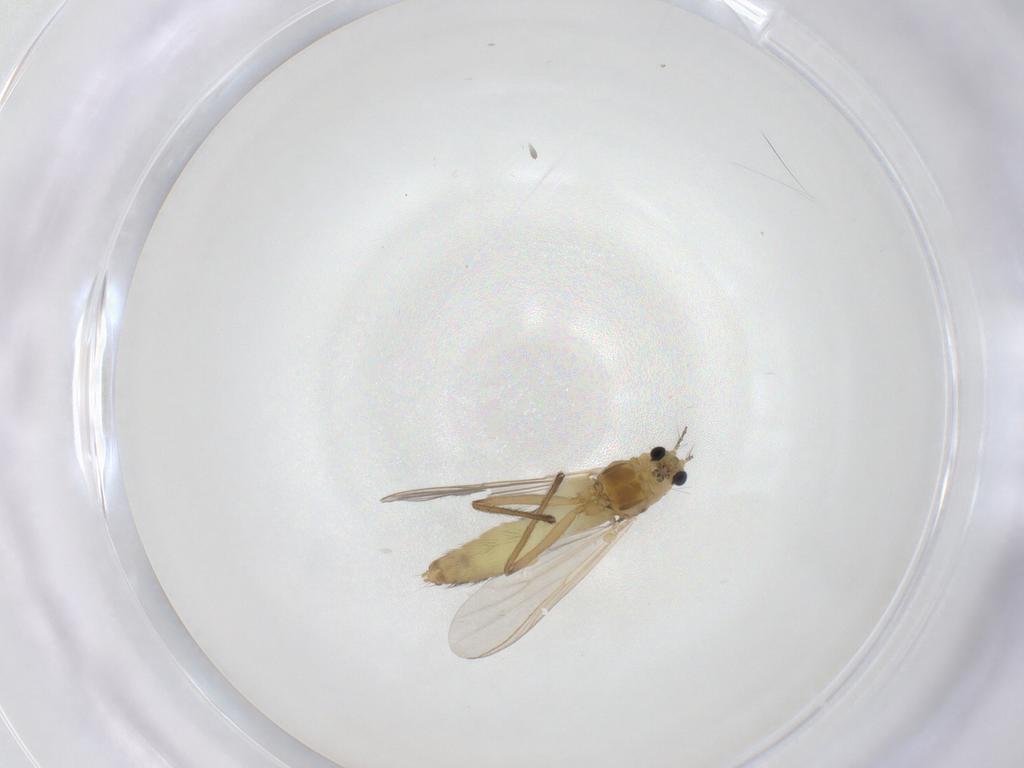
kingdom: Animalia
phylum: Arthropoda
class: Insecta
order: Diptera
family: Chironomidae
